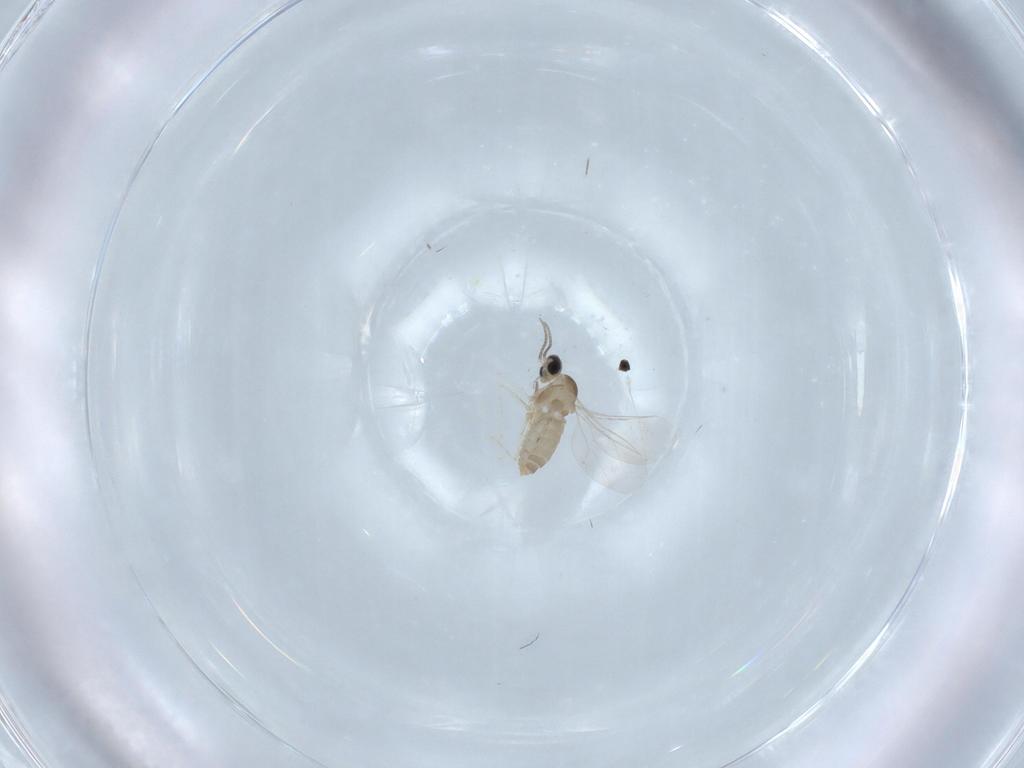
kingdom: Animalia
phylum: Arthropoda
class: Insecta
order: Diptera
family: Cecidomyiidae
